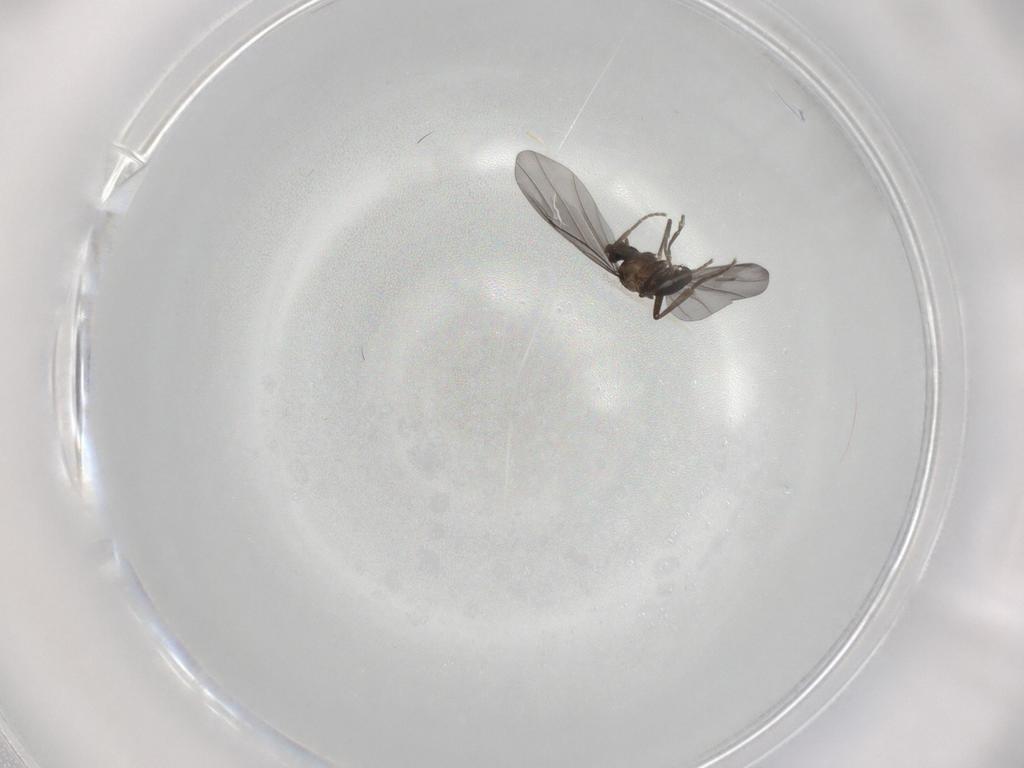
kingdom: Animalia
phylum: Arthropoda
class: Insecta
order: Diptera
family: Phoridae
